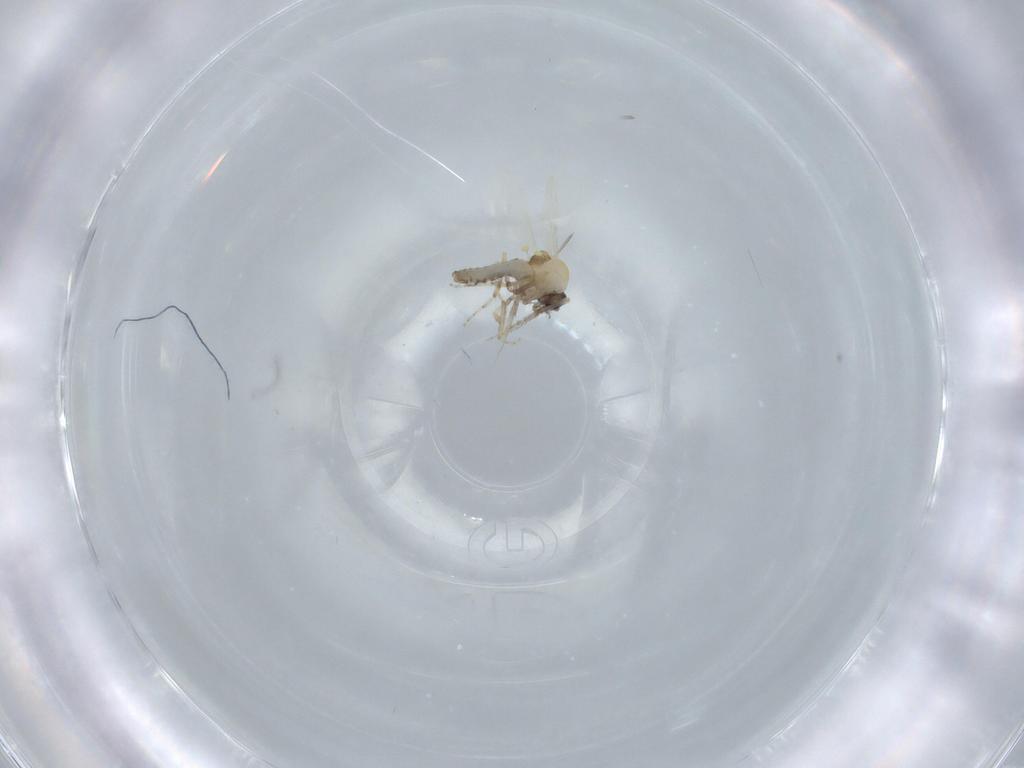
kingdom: Animalia
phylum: Arthropoda
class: Insecta
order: Diptera
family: Ceratopogonidae
